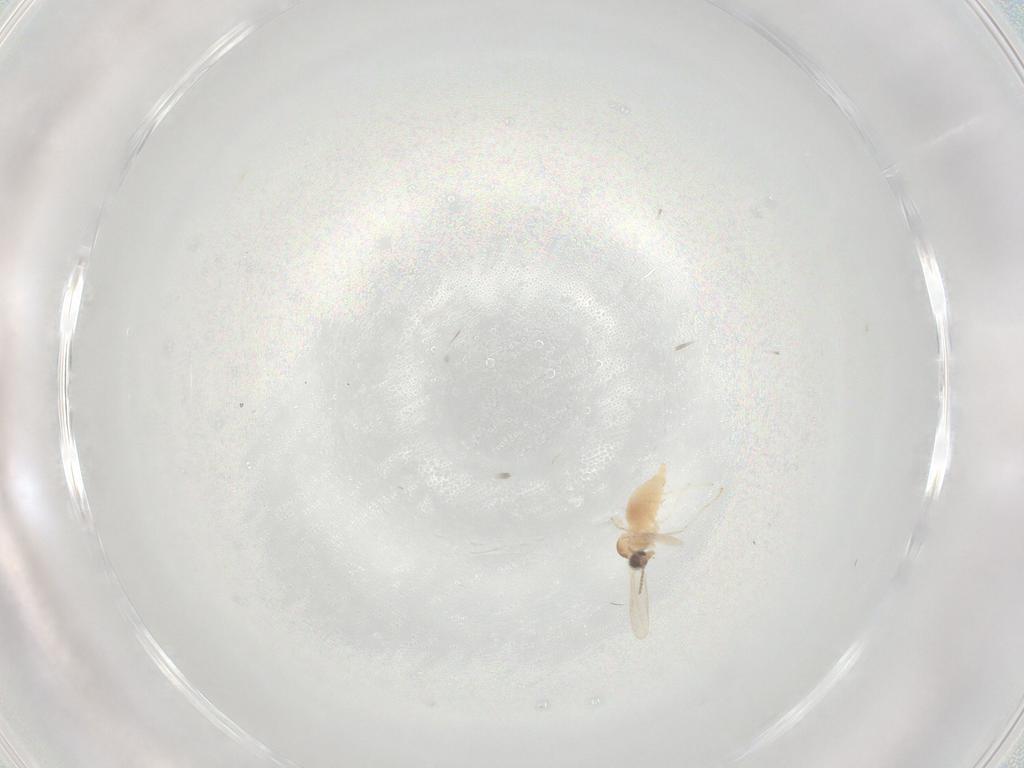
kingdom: Animalia
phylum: Arthropoda
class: Insecta
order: Diptera
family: Cecidomyiidae
